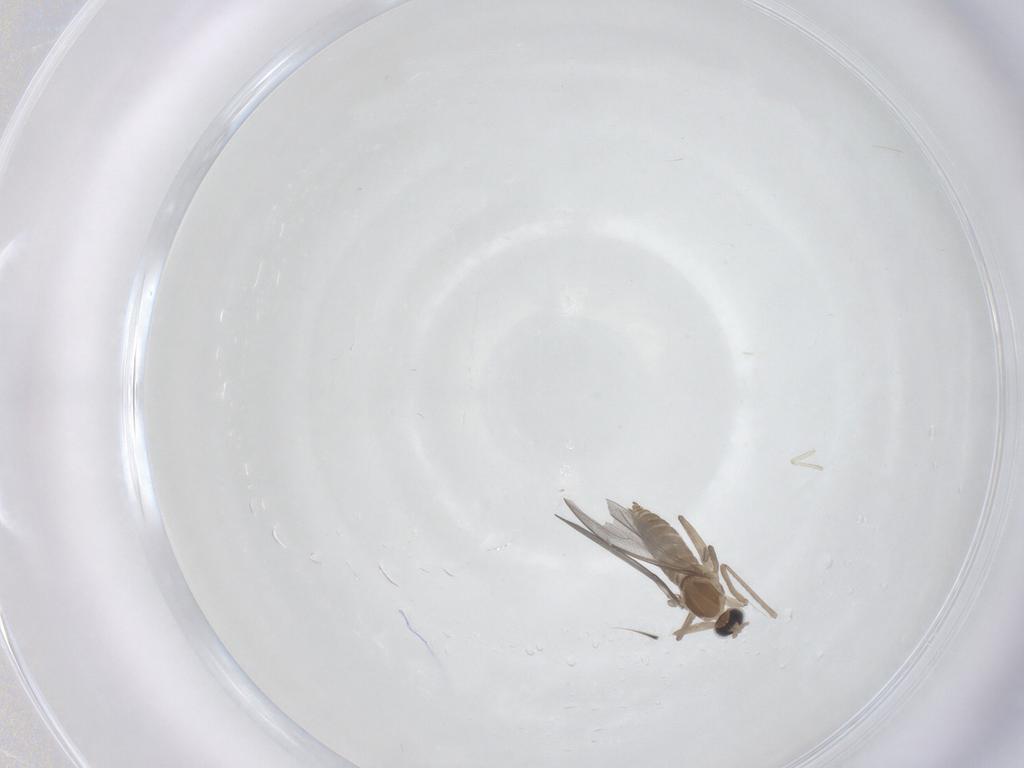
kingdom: Animalia
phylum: Arthropoda
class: Insecta
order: Diptera
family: Cecidomyiidae
